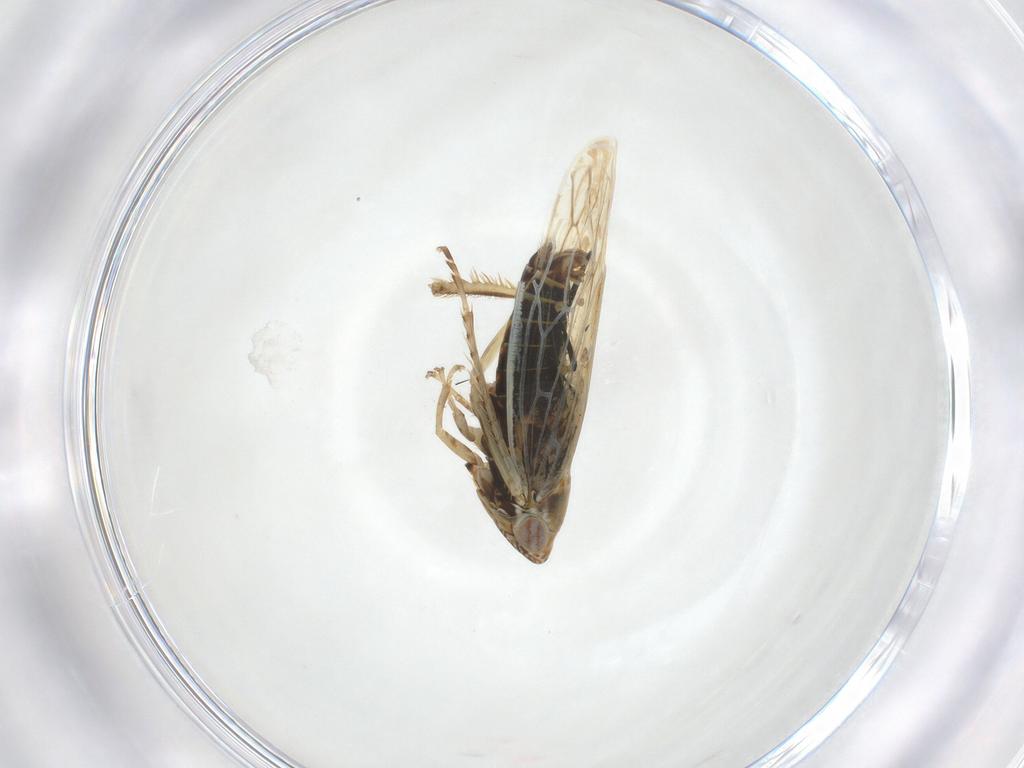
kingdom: Animalia
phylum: Arthropoda
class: Insecta
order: Hemiptera
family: Cicadellidae
